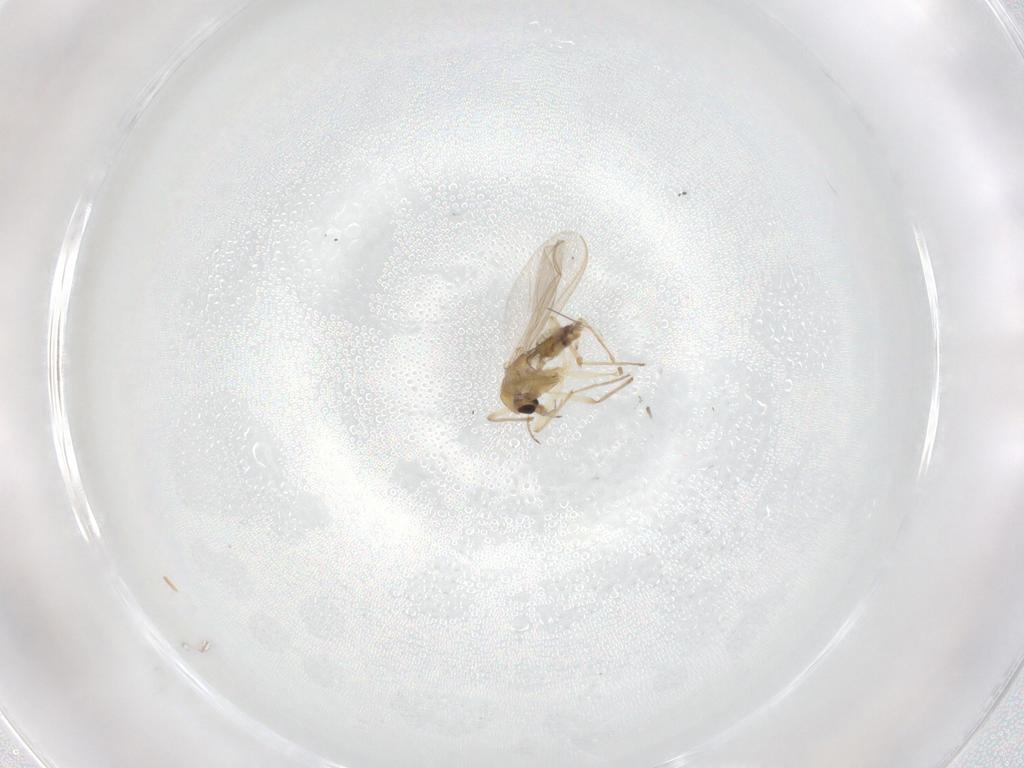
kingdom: Animalia
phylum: Arthropoda
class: Insecta
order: Diptera
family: Chironomidae
